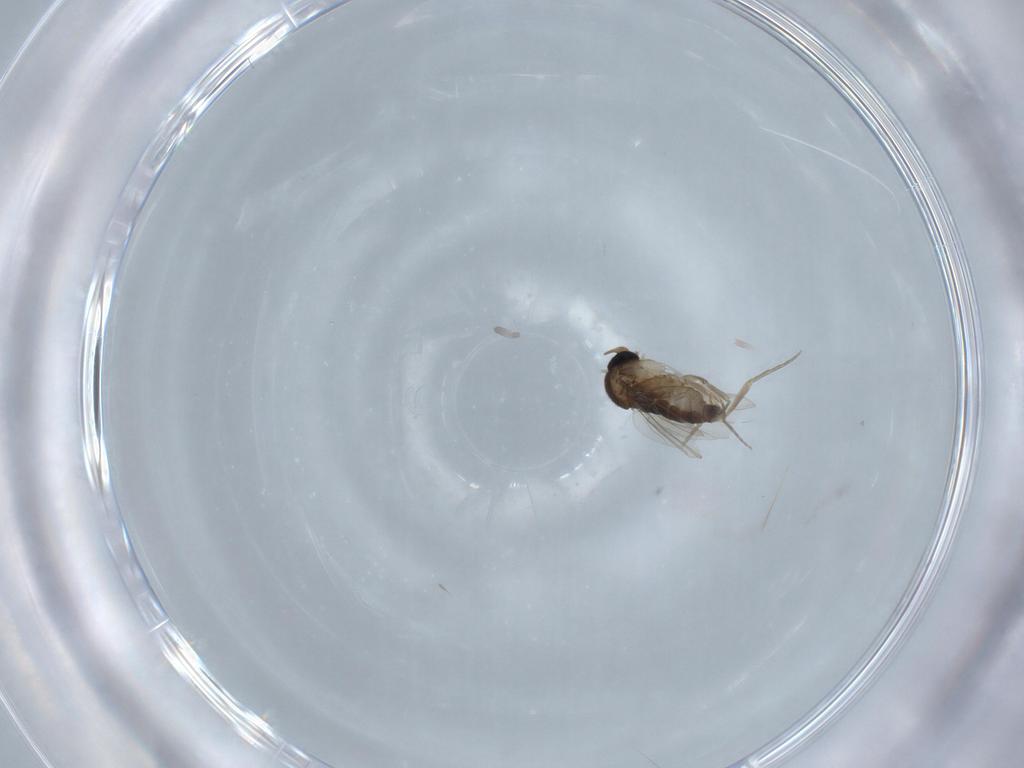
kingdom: Animalia
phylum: Arthropoda
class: Insecta
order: Diptera
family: Phoridae
